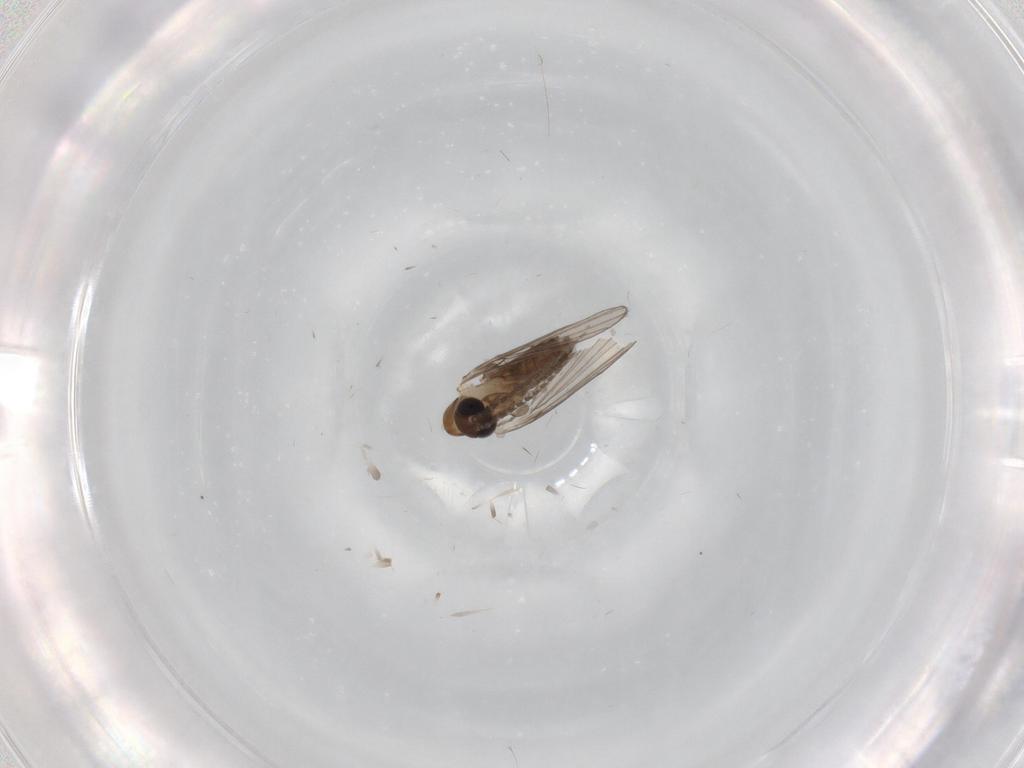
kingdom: Animalia
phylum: Arthropoda
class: Insecta
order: Diptera
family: Psychodidae
